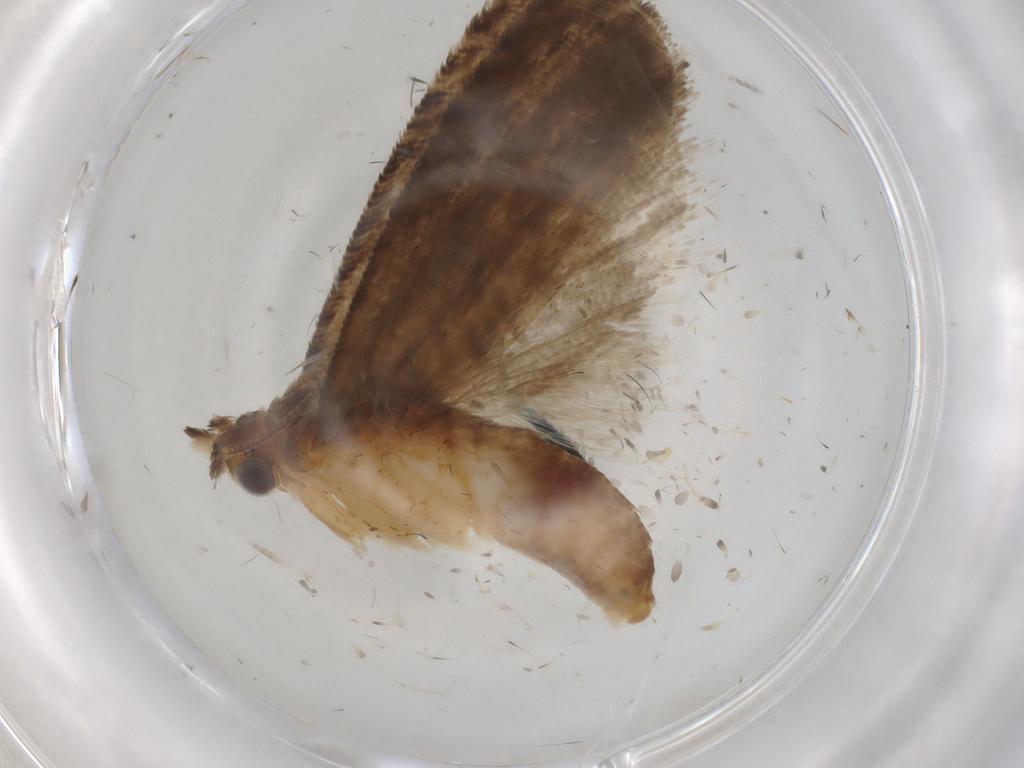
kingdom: Animalia
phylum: Arthropoda
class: Insecta
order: Lepidoptera
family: Tortricidae
